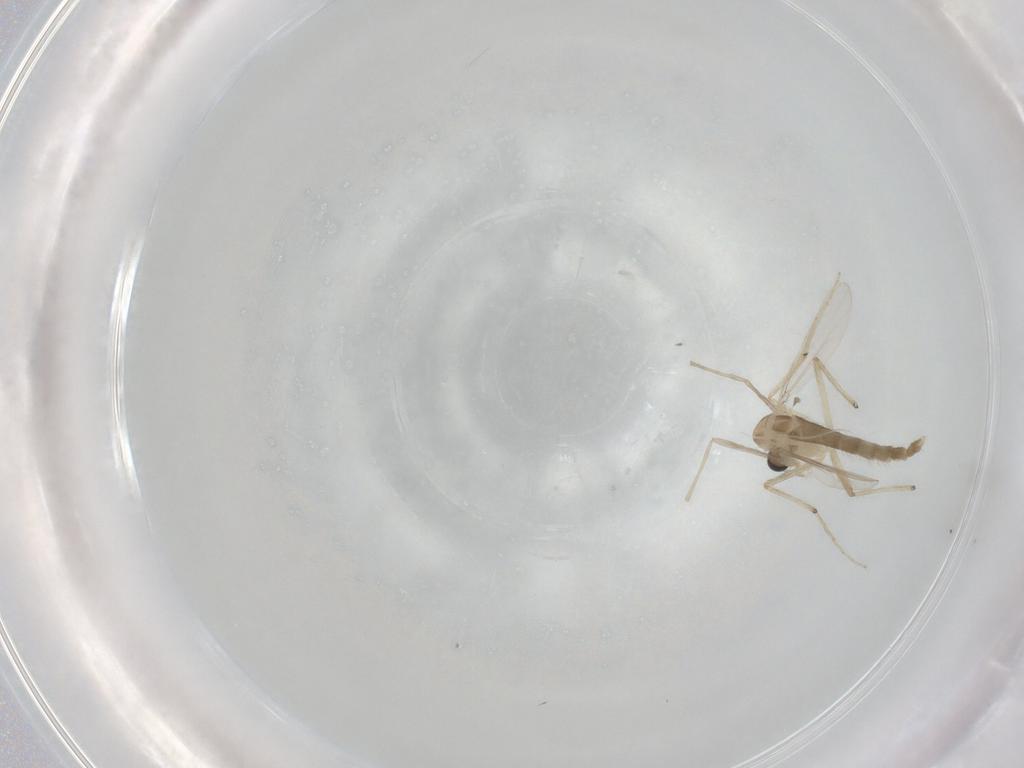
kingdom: Animalia
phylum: Arthropoda
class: Insecta
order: Diptera
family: Chironomidae
